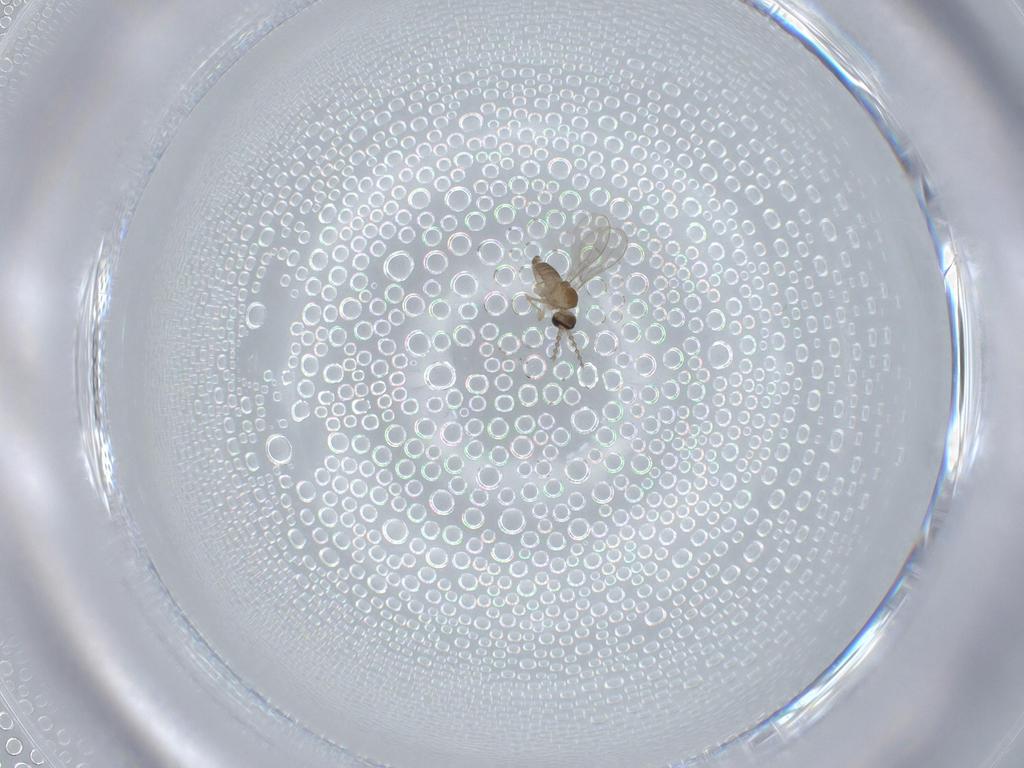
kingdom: Animalia
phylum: Arthropoda
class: Insecta
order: Diptera
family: Cecidomyiidae
